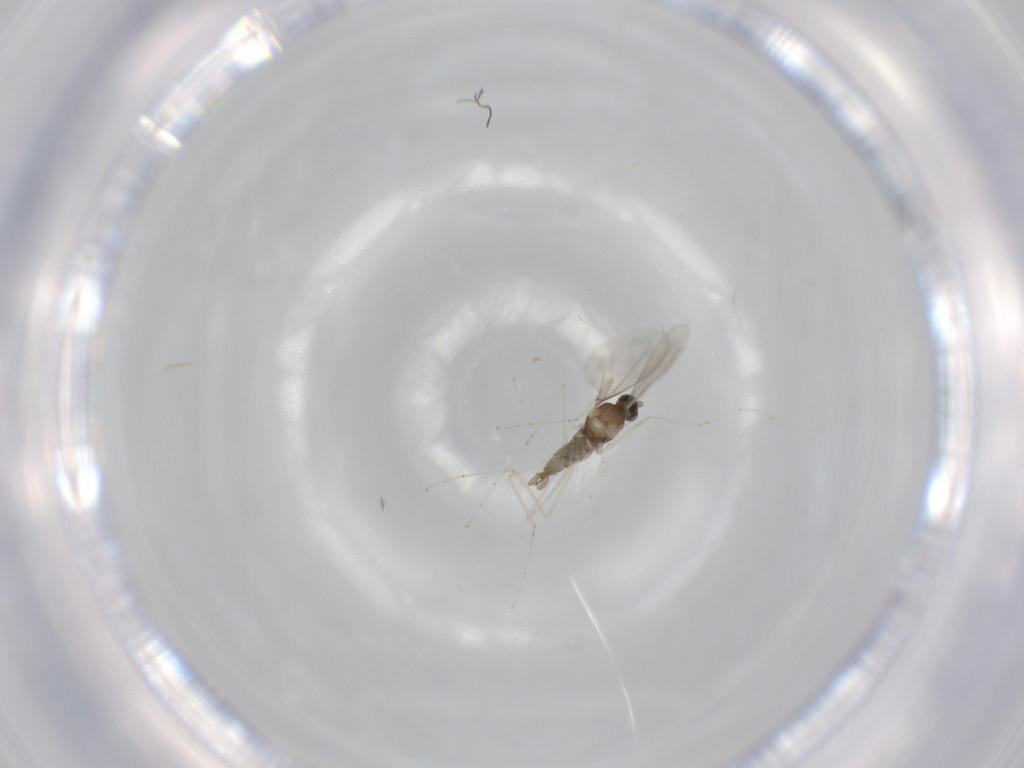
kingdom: Animalia
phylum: Arthropoda
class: Insecta
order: Diptera
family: Cecidomyiidae
